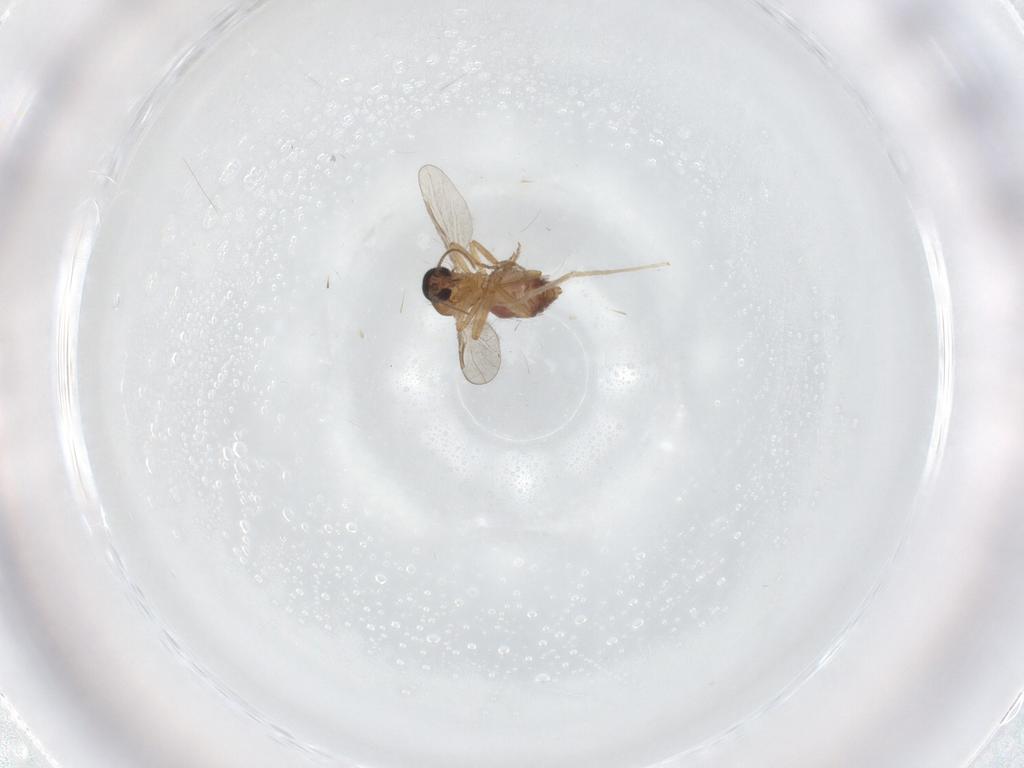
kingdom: Animalia
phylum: Arthropoda
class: Insecta
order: Diptera
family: Ceratopogonidae
